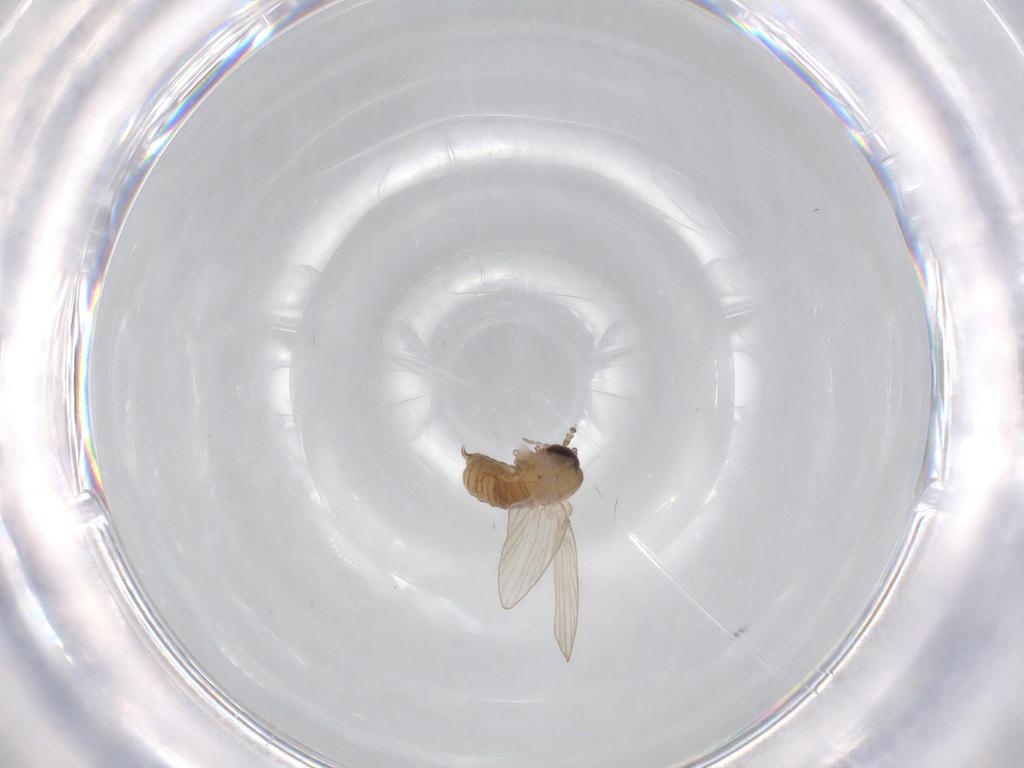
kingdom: Animalia
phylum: Arthropoda
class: Insecta
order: Diptera
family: Psychodidae
